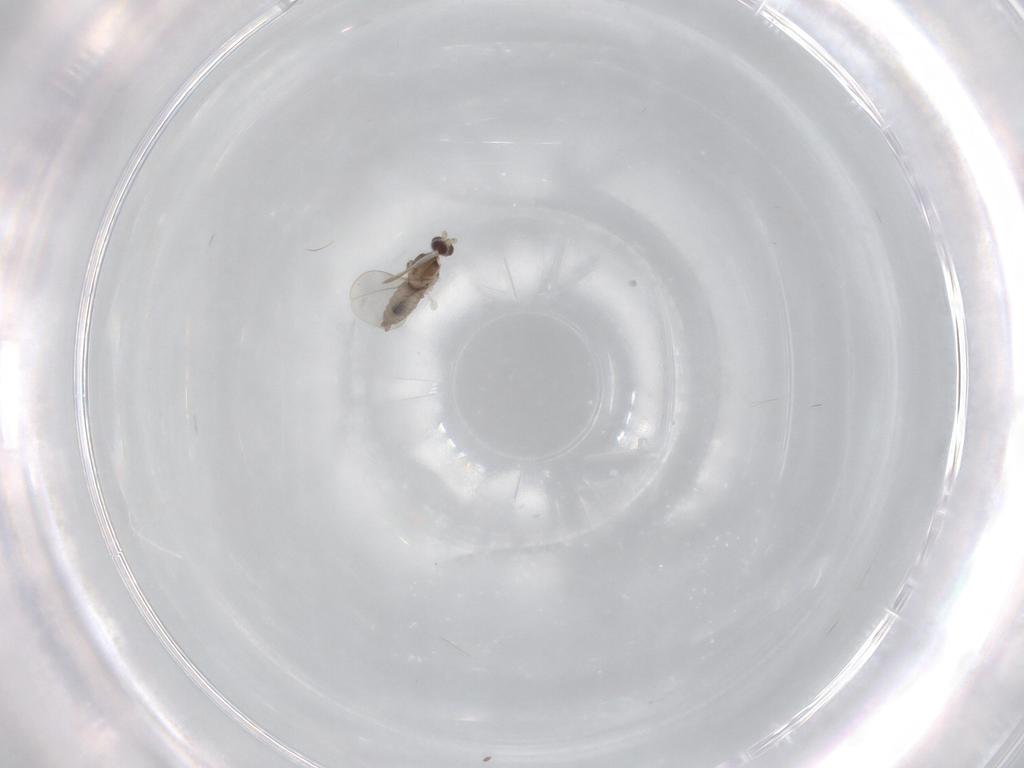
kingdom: Animalia
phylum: Arthropoda
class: Insecta
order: Diptera
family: Cecidomyiidae
